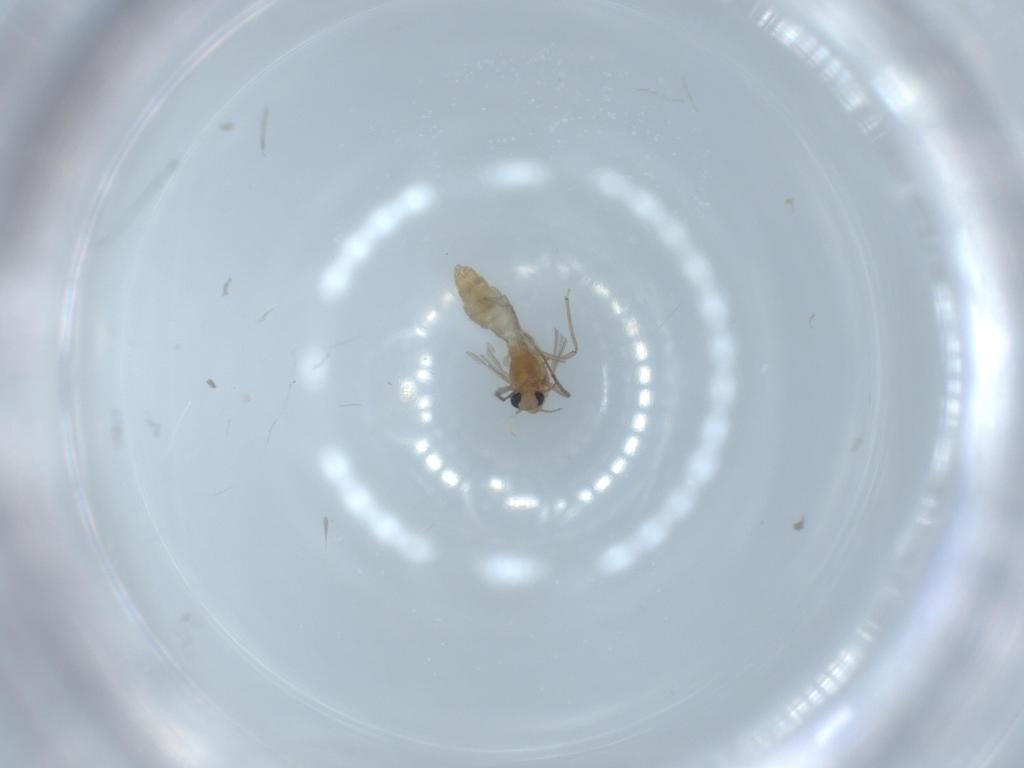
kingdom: Animalia
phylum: Arthropoda
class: Insecta
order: Diptera
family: Chironomidae
